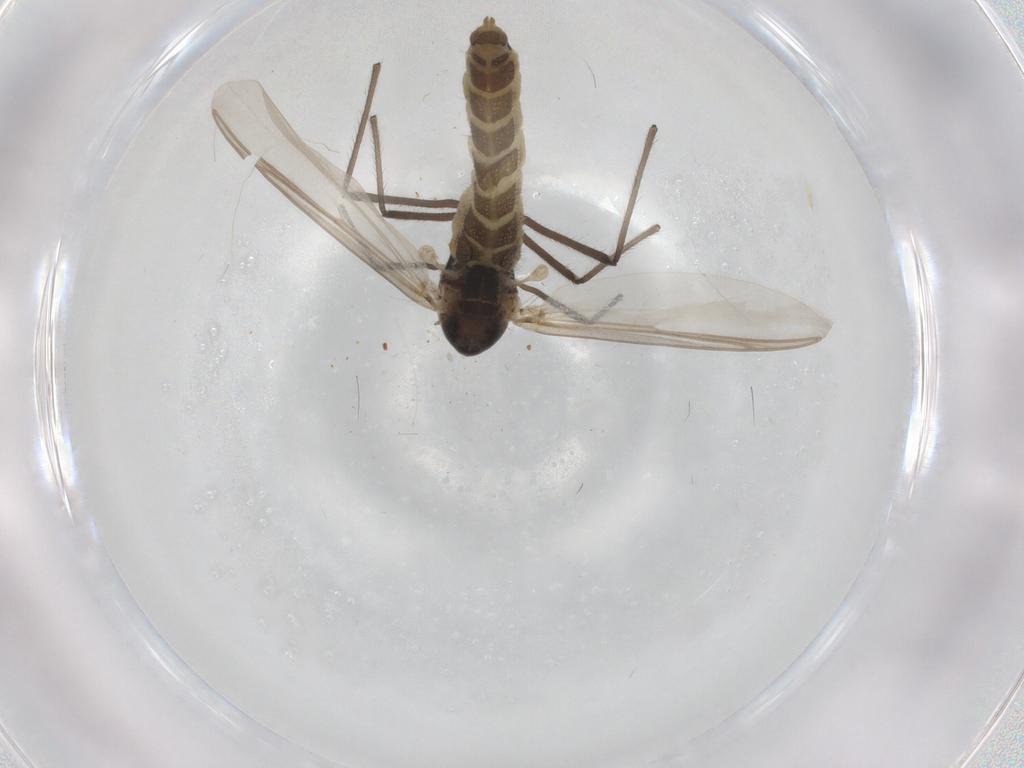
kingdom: Animalia
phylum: Arthropoda
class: Insecta
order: Diptera
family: Chironomidae
